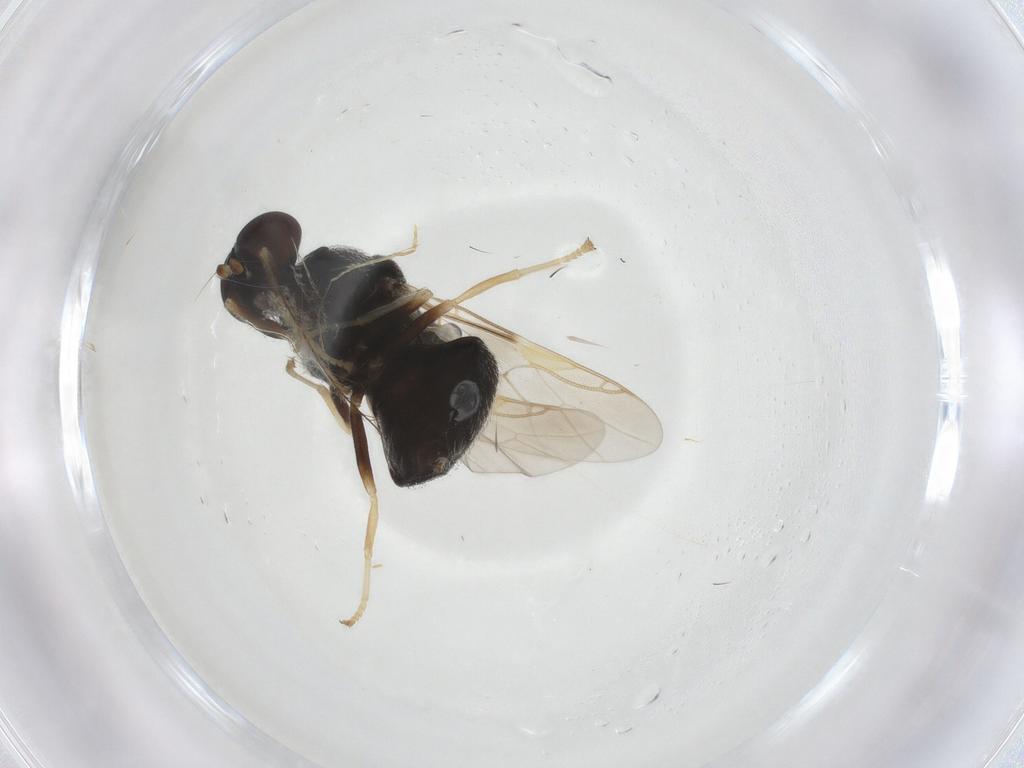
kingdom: Animalia
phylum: Arthropoda
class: Insecta
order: Diptera
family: Stratiomyidae
